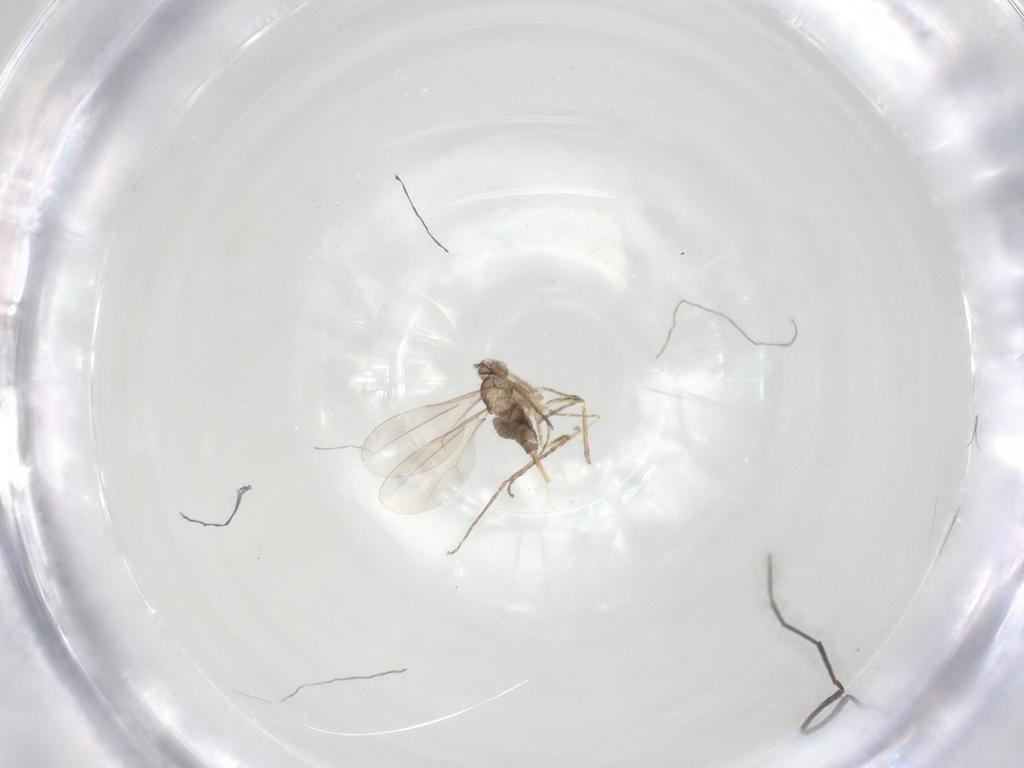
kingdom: Animalia
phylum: Arthropoda
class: Insecta
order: Diptera
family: Chironomidae
